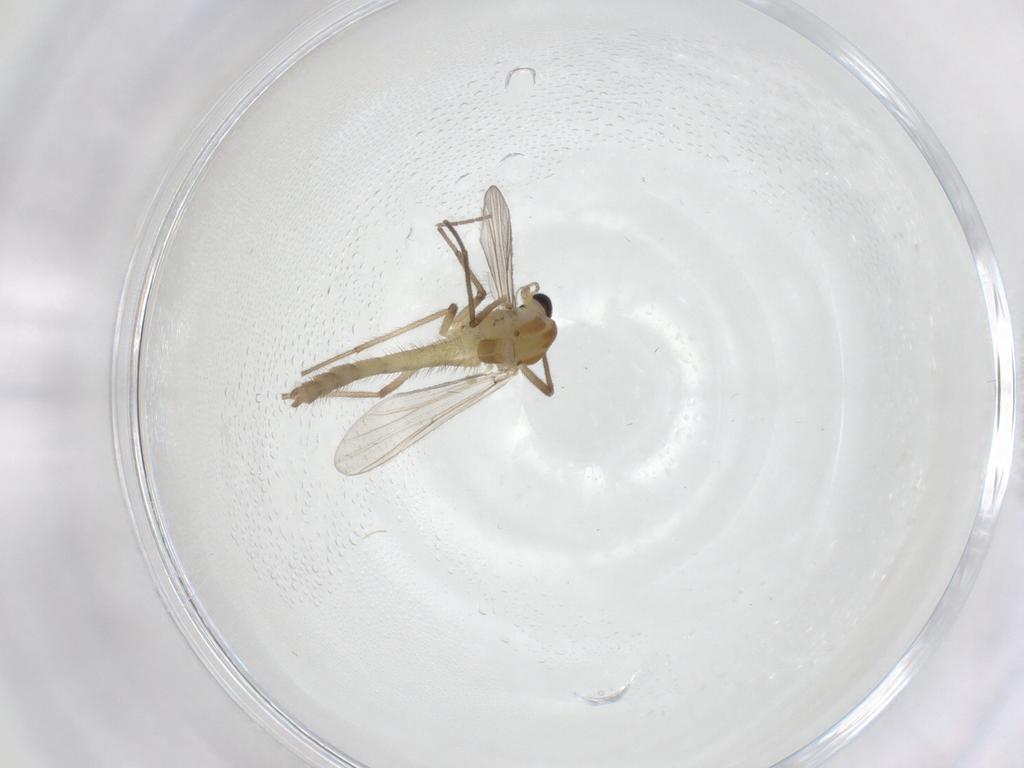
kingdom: Animalia
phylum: Arthropoda
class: Insecta
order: Diptera
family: Chironomidae
